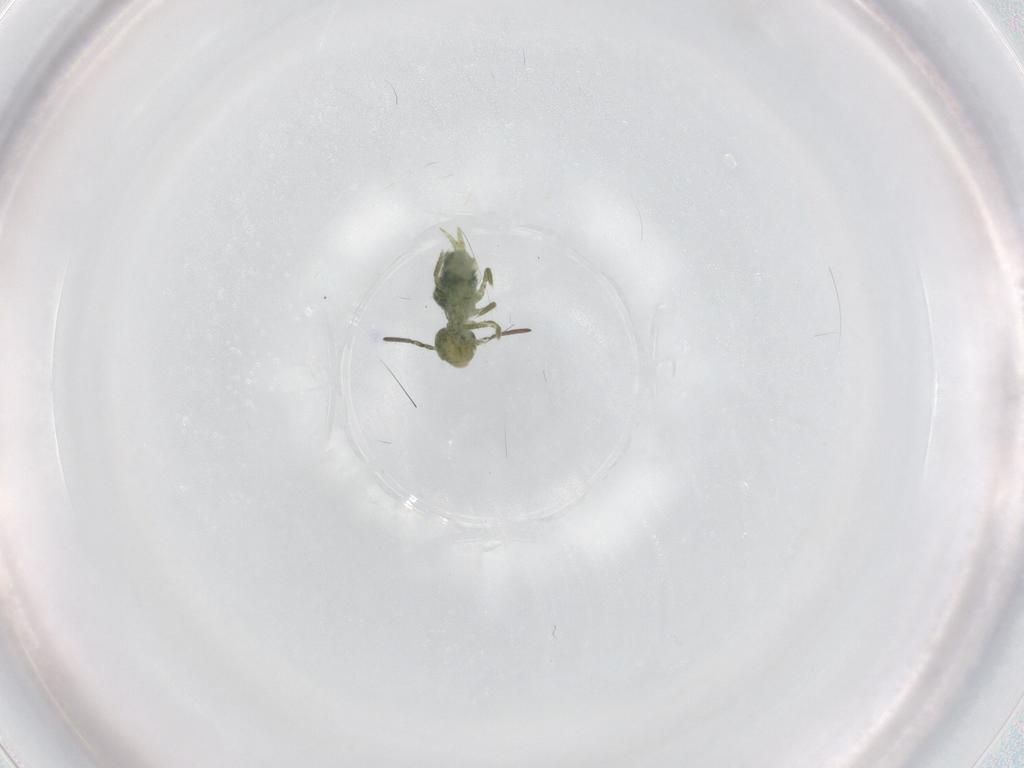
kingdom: Animalia
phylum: Arthropoda
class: Collembola
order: Symphypleona
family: Sminthuridae
